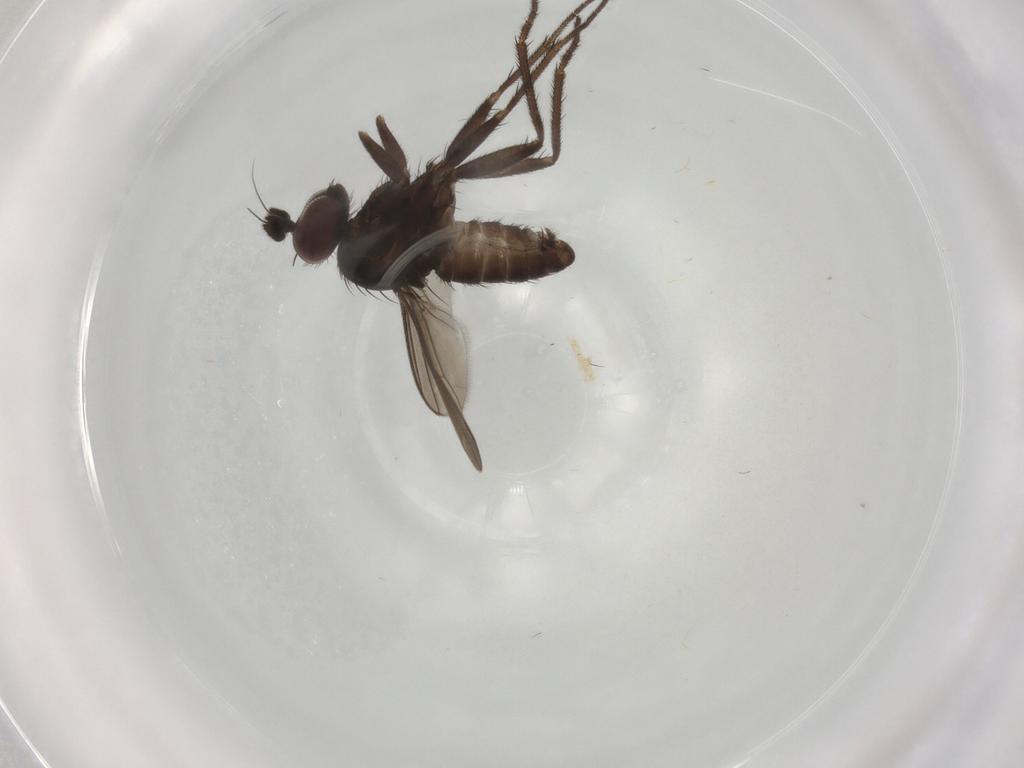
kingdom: Animalia
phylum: Arthropoda
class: Insecta
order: Diptera
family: Dolichopodidae
